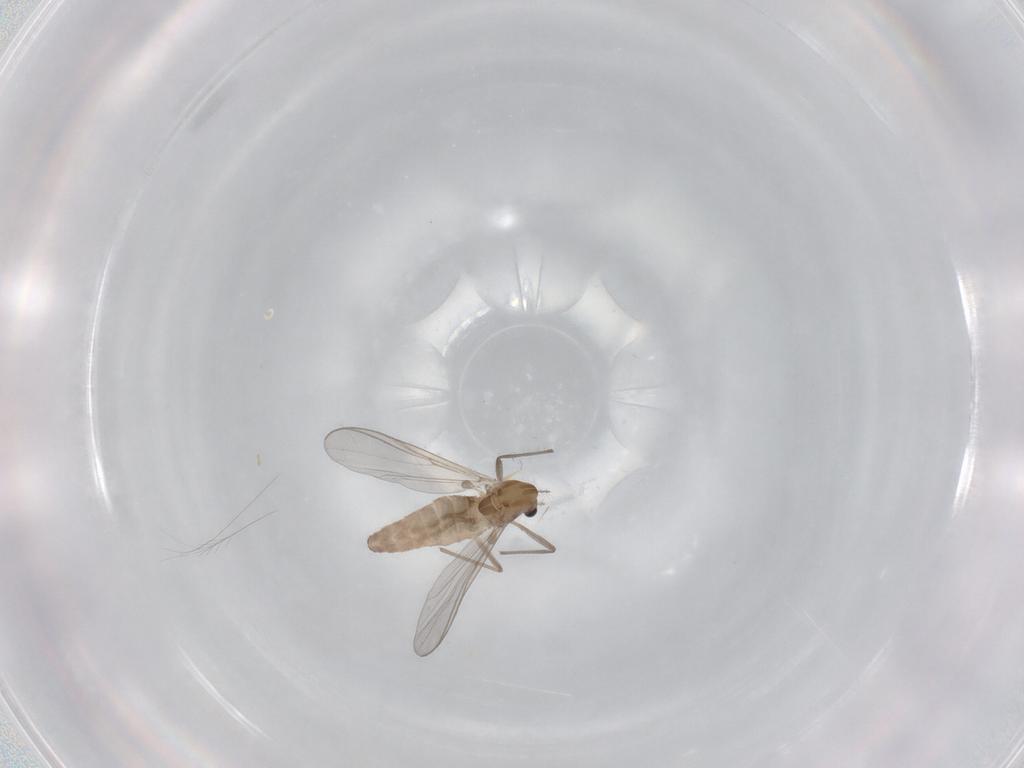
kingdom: Animalia
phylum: Arthropoda
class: Insecta
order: Diptera
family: Chironomidae
